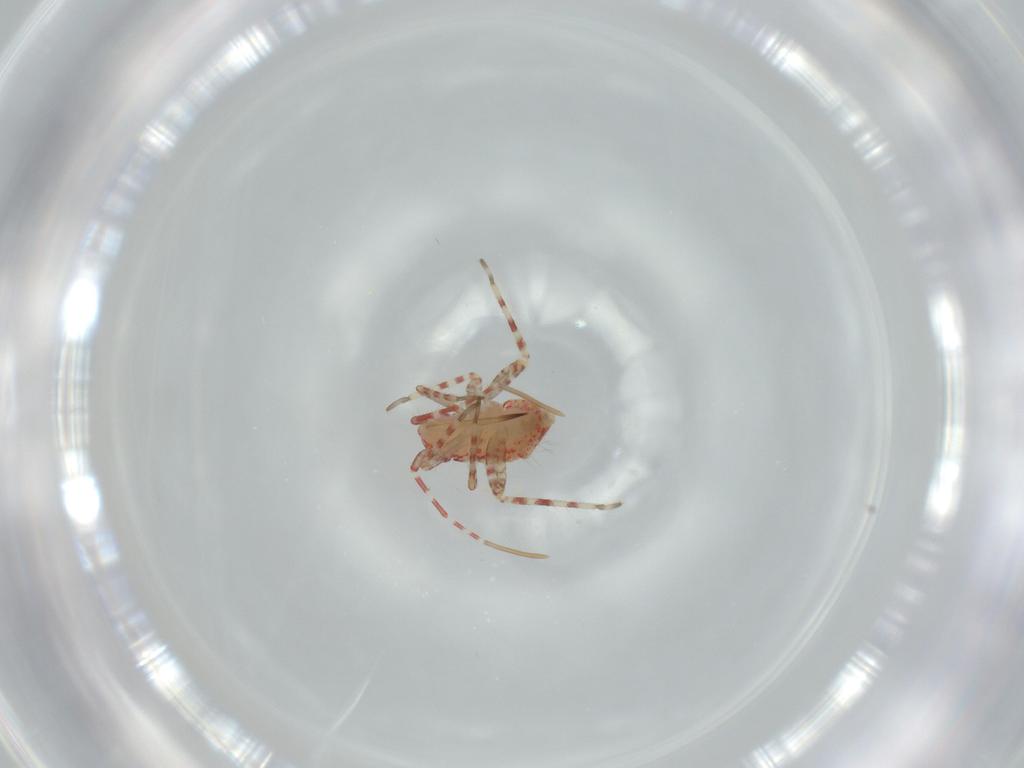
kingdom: Animalia
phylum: Arthropoda
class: Insecta
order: Hemiptera
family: Miridae
